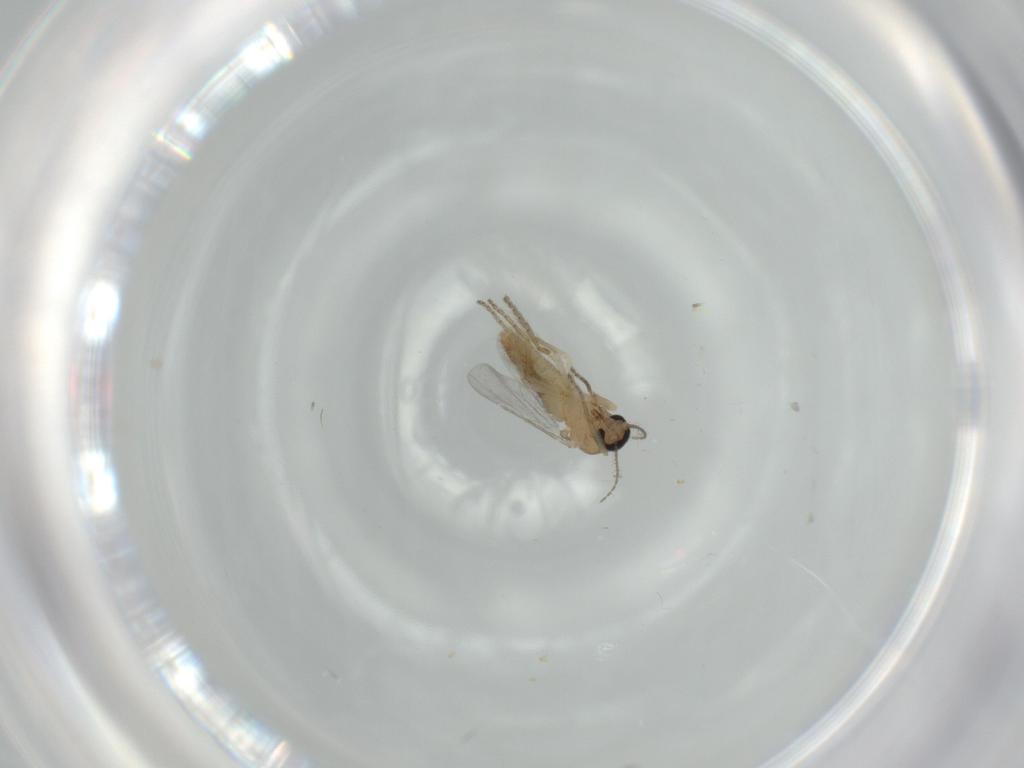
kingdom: Animalia
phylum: Arthropoda
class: Insecta
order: Diptera
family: Ceratopogonidae
